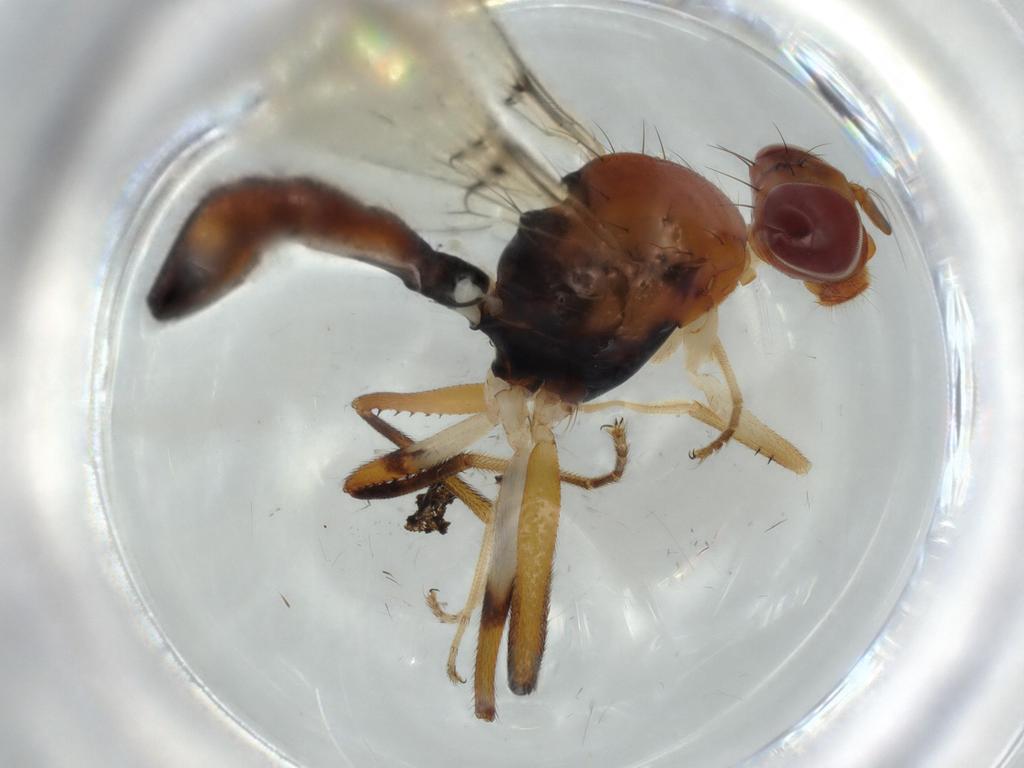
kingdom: Animalia
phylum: Arthropoda
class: Insecta
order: Diptera
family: Richardiidae
